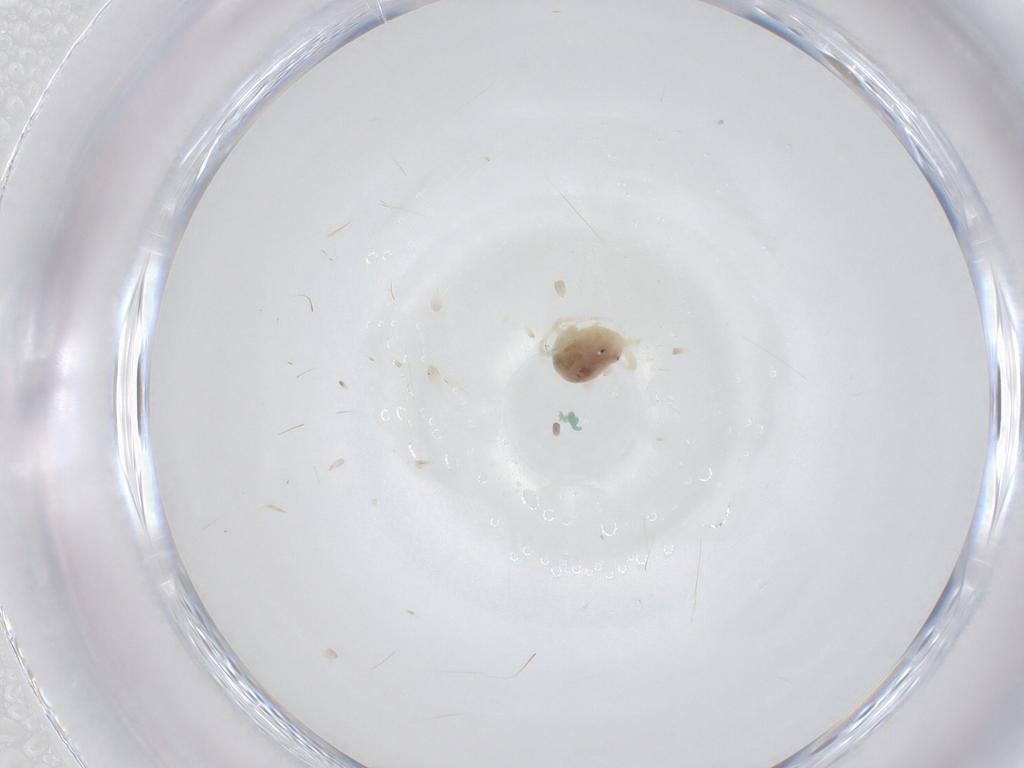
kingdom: Animalia
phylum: Arthropoda
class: Arachnida
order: Trombidiformes
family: Anystidae
